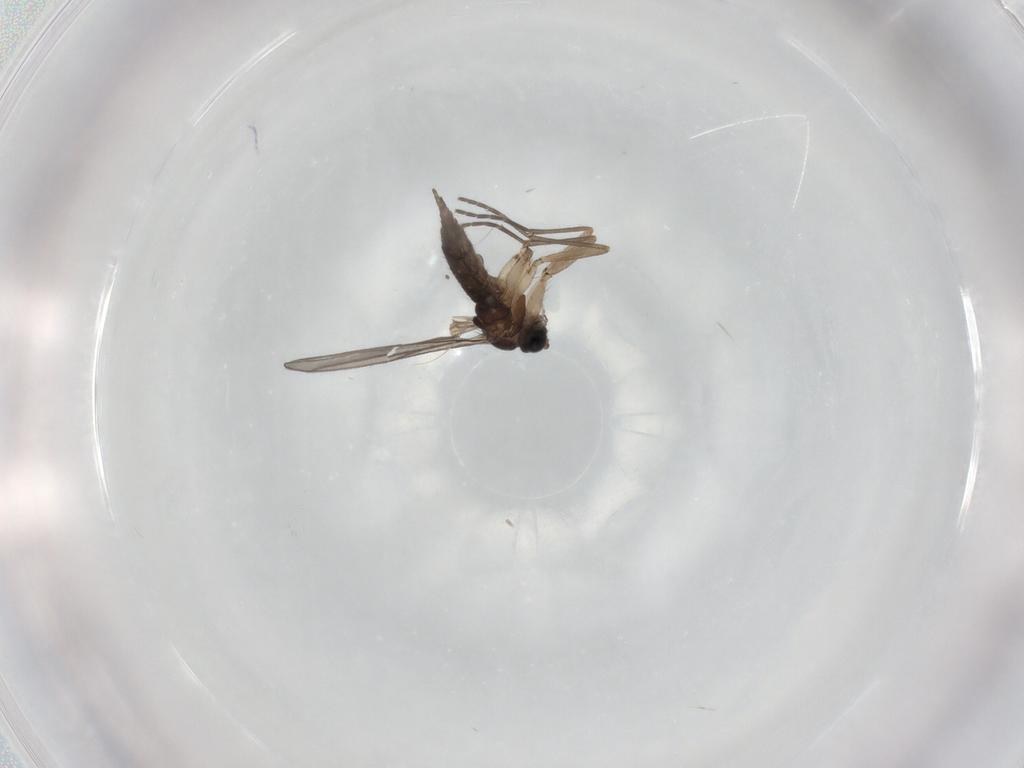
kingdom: Animalia
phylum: Arthropoda
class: Insecta
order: Diptera
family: Sciaridae
